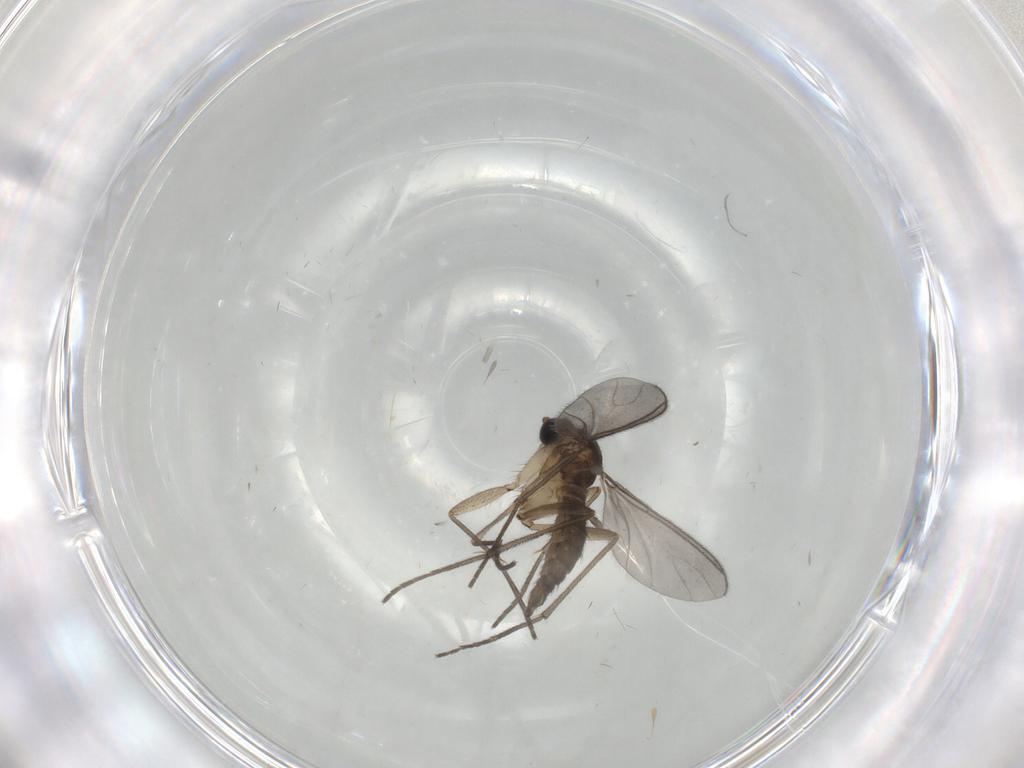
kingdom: Animalia
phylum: Arthropoda
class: Insecta
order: Diptera
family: Sciaridae
